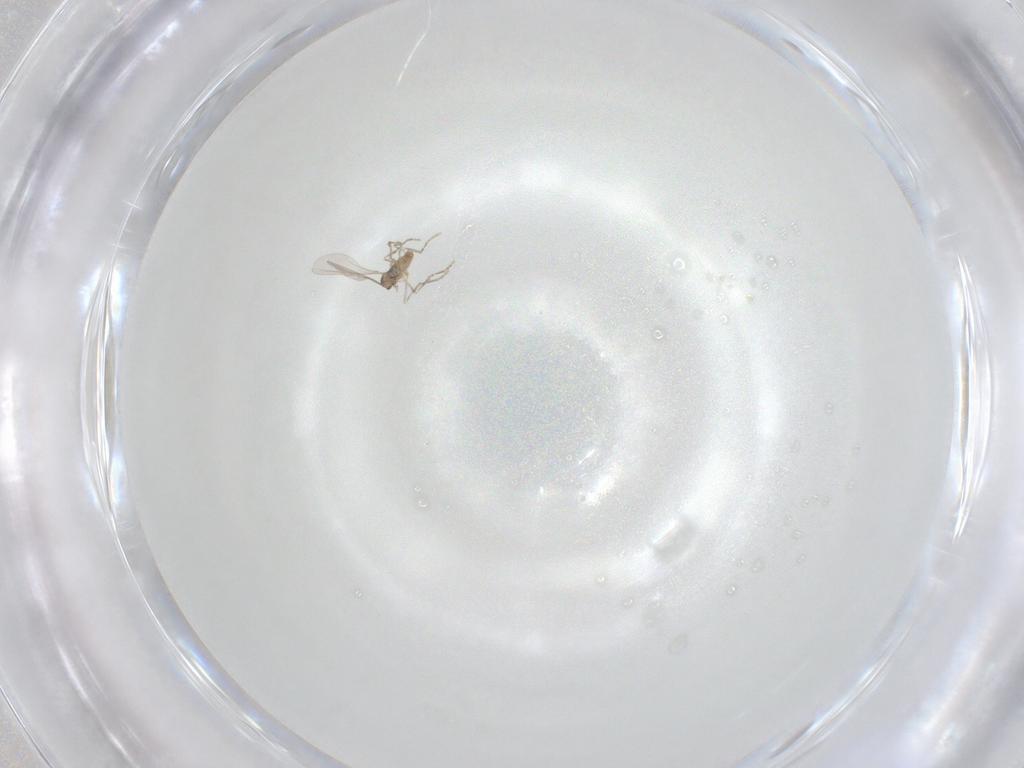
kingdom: Animalia
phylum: Arthropoda
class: Insecta
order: Diptera
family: Cecidomyiidae
